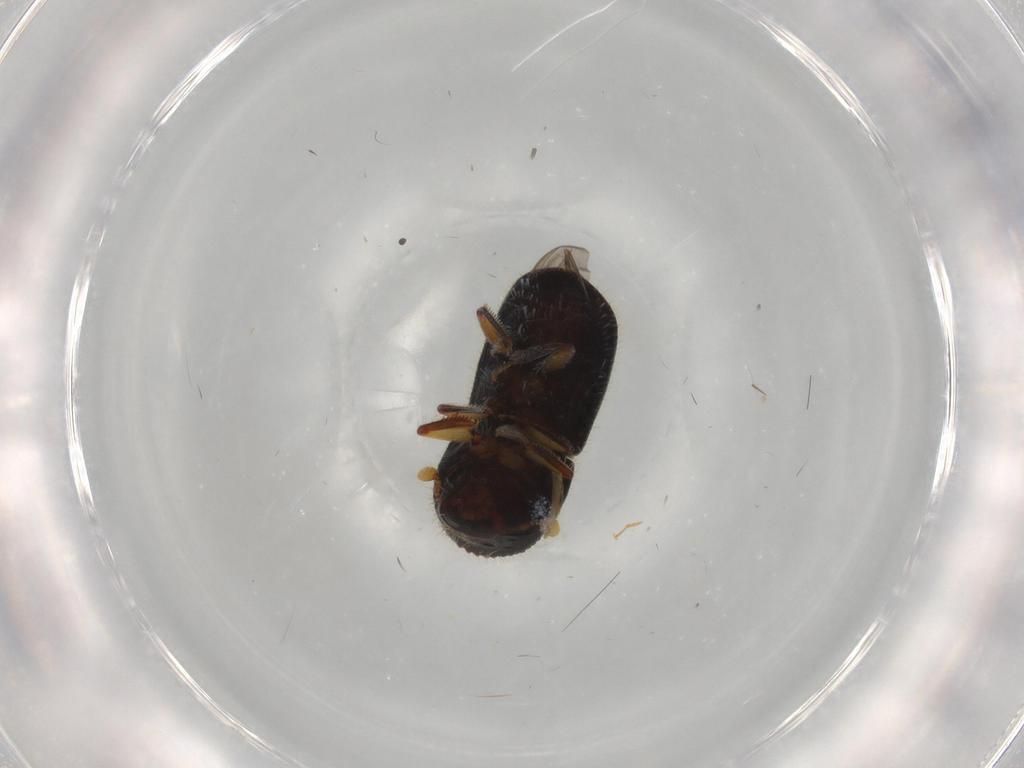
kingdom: Animalia
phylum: Arthropoda
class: Insecta
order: Coleoptera
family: Curculionidae
